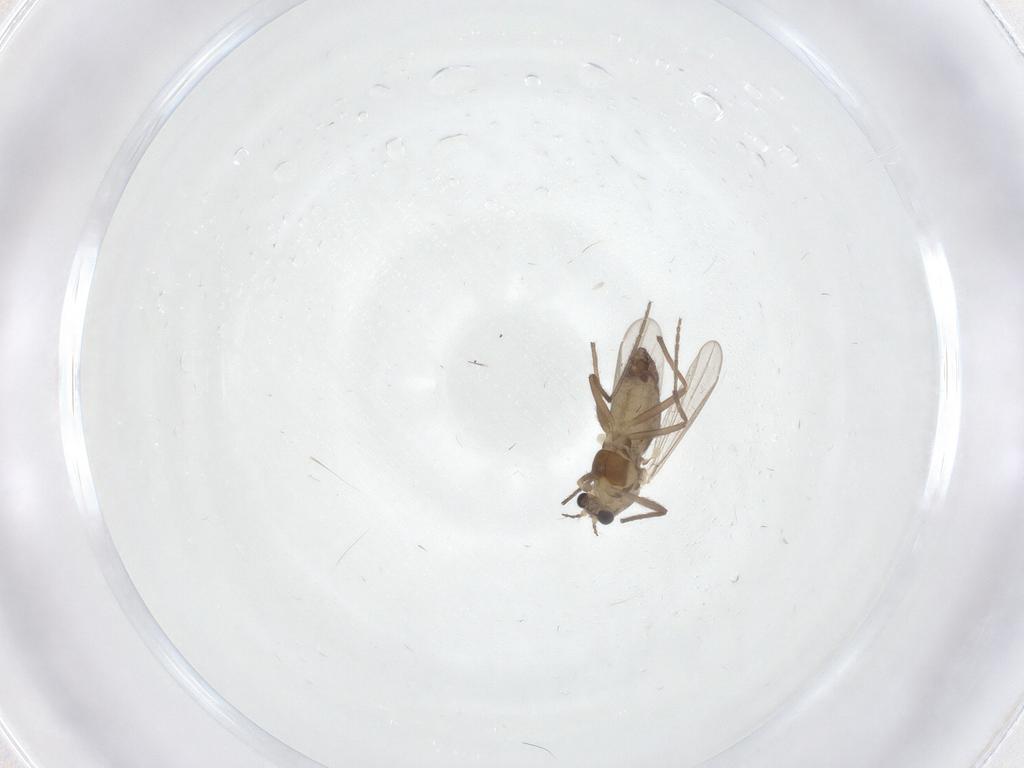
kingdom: Animalia
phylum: Arthropoda
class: Insecta
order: Diptera
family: Chironomidae
